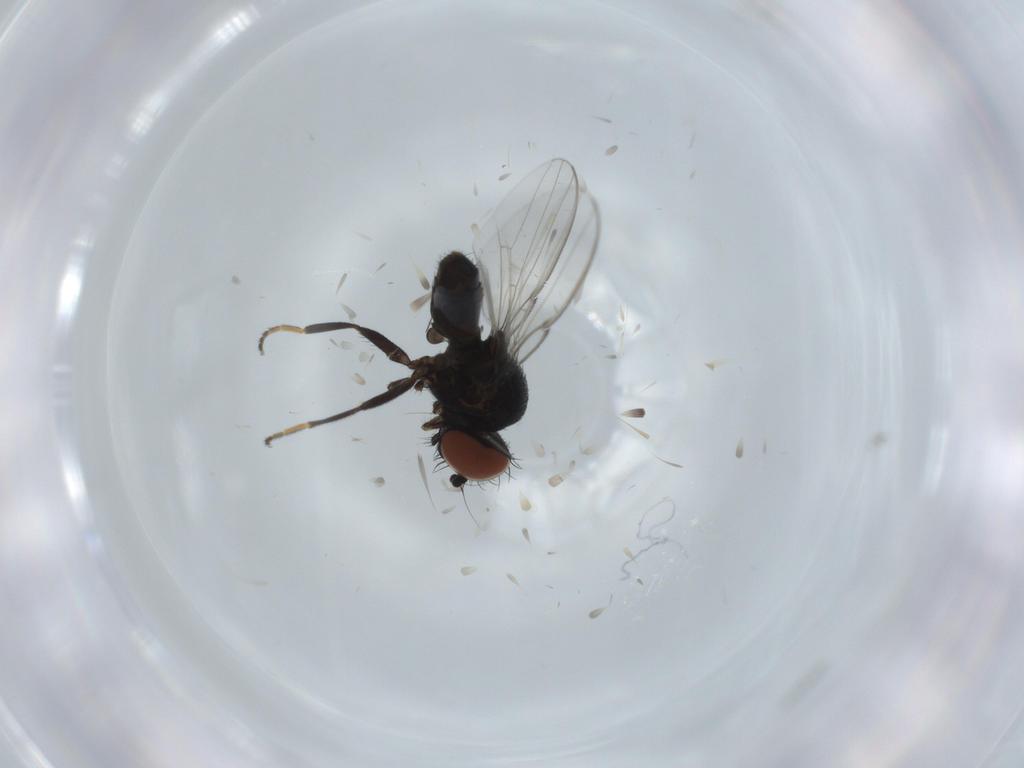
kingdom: Animalia
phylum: Arthropoda
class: Insecta
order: Diptera
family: Milichiidae
